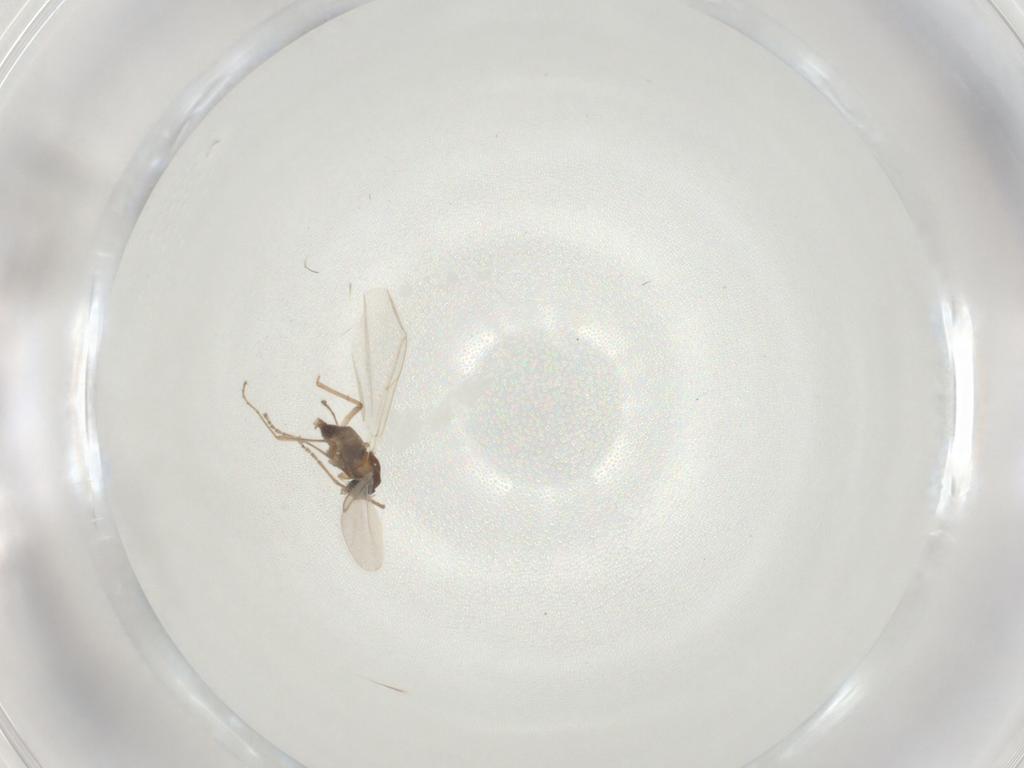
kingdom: Animalia
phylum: Arthropoda
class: Insecta
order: Diptera
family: Cecidomyiidae
